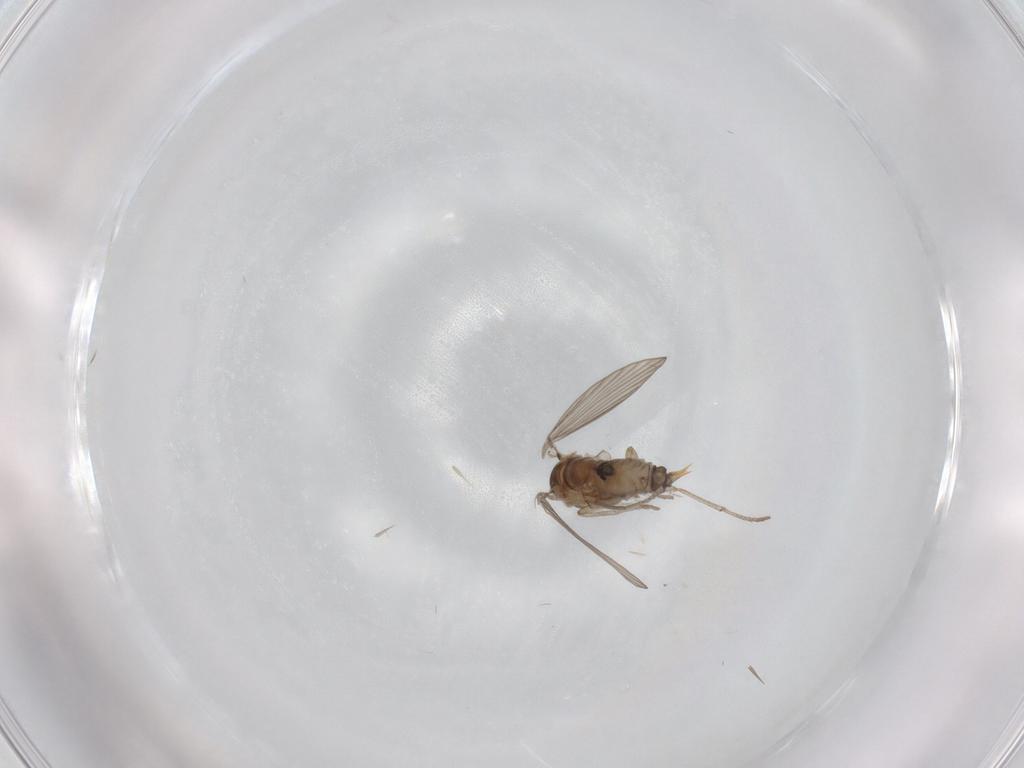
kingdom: Animalia
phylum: Arthropoda
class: Insecta
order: Diptera
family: Psychodidae
